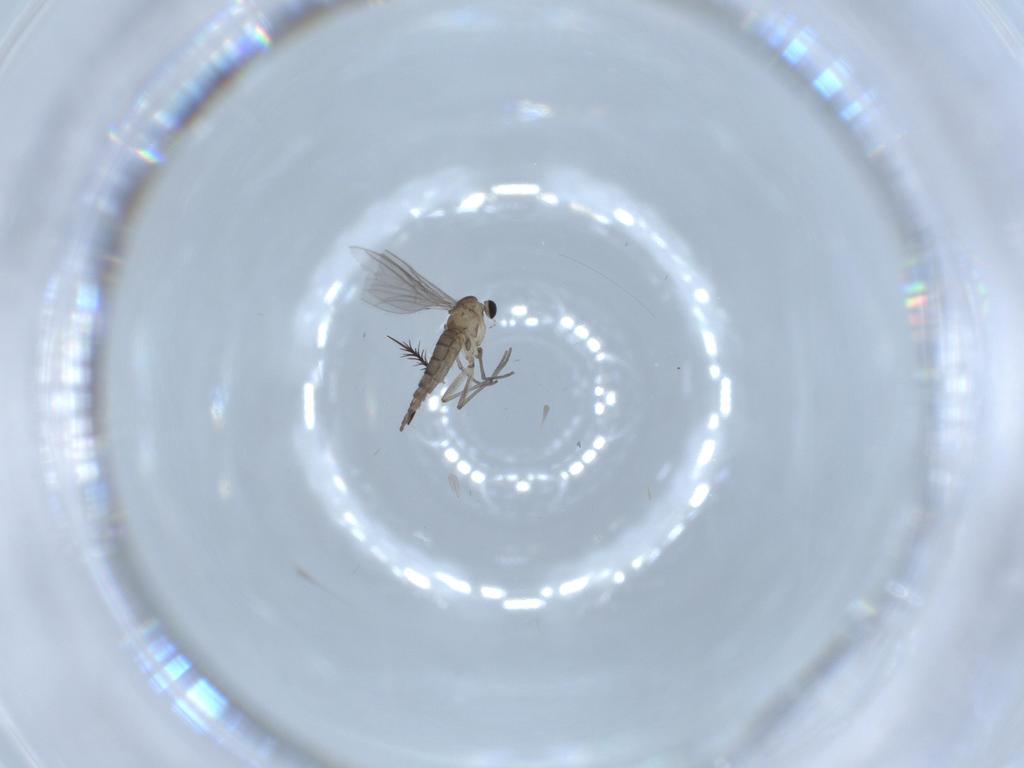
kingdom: Animalia
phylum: Arthropoda
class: Insecta
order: Diptera
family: Sciaridae
